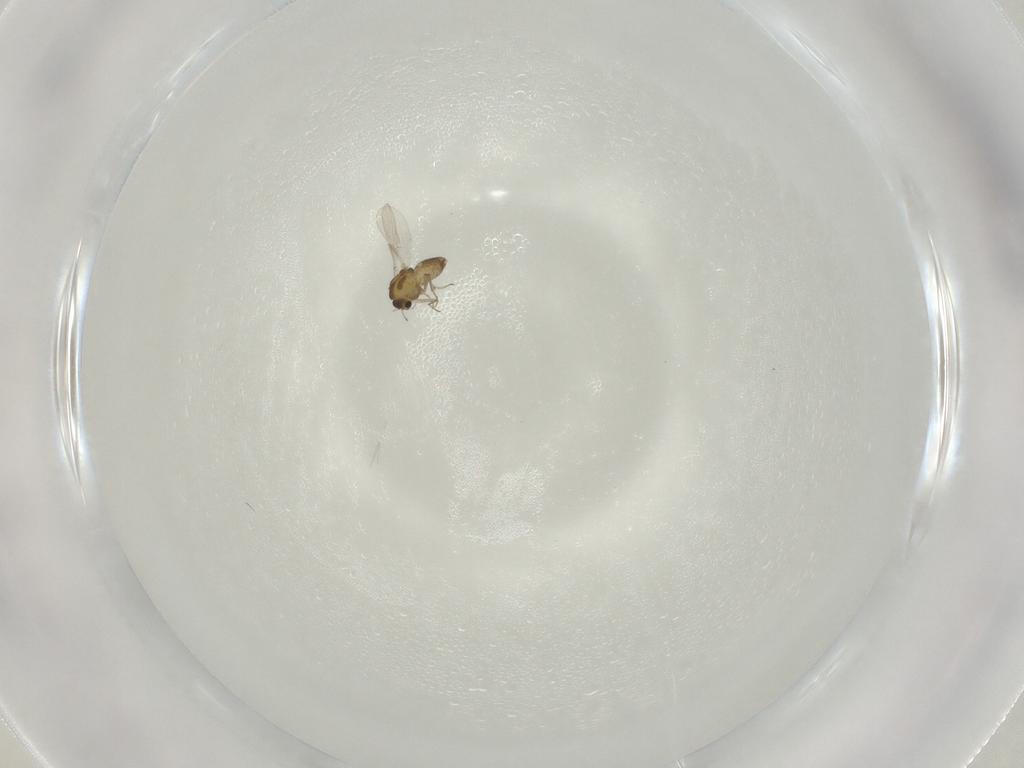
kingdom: Animalia
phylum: Arthropoda
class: Insecta
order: Diptera
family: Chironomidae
